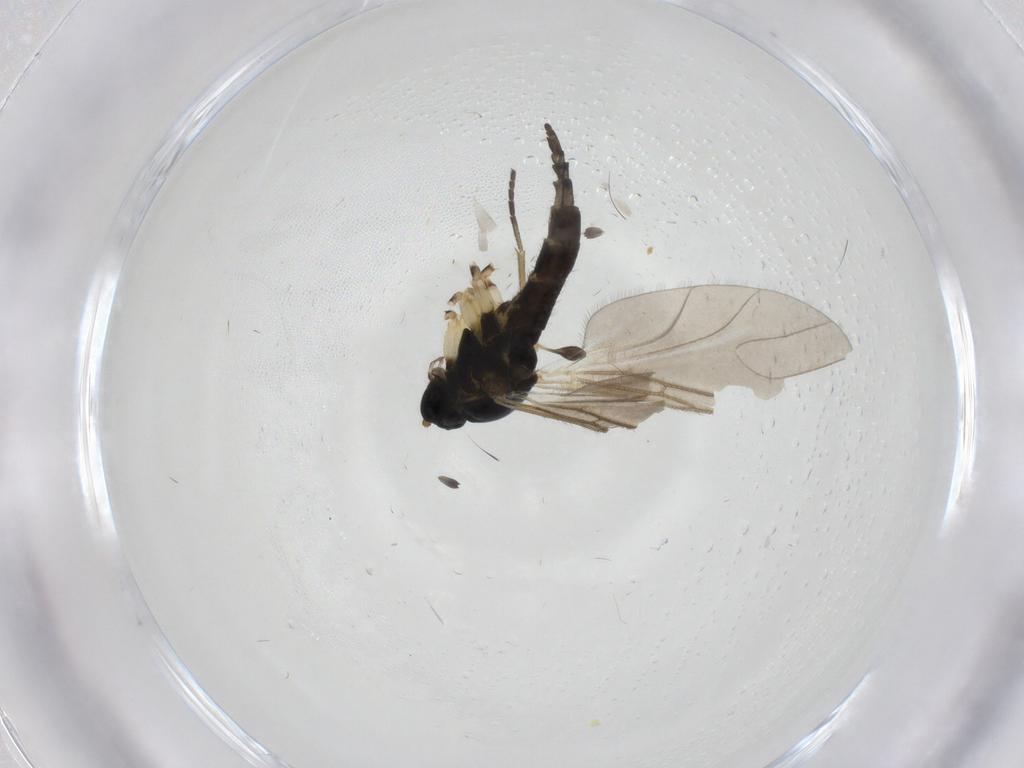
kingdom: Animalia
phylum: Arthropoda
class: Insecta
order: Diptera
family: Sciaridae
